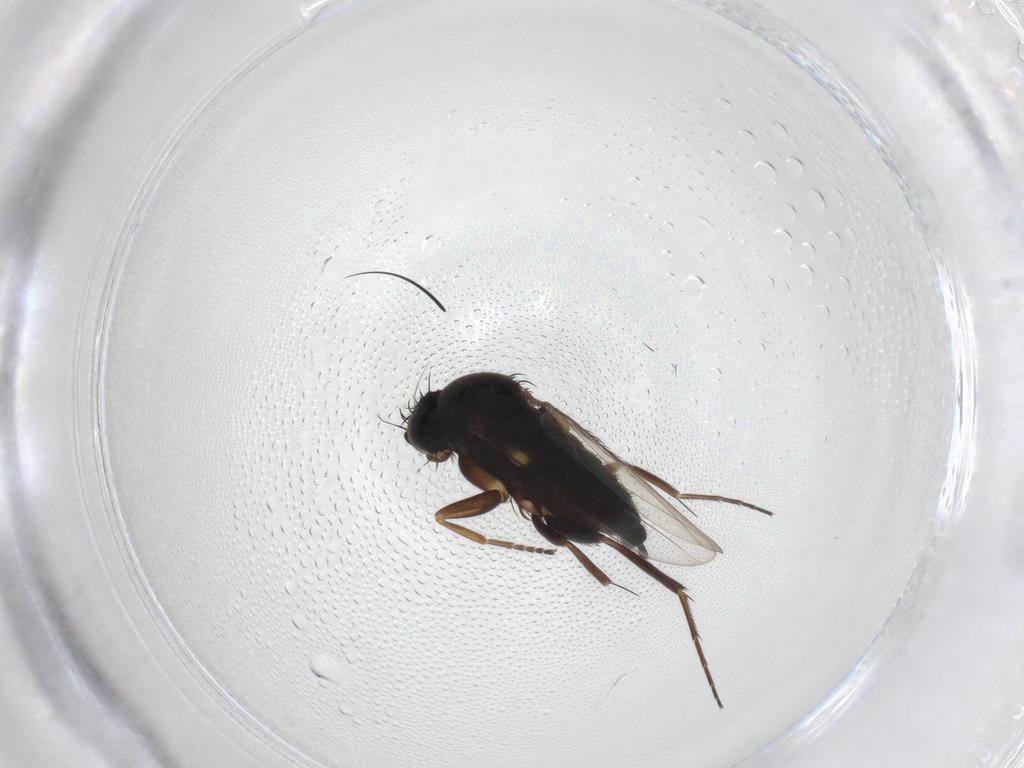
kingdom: Animalia
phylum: Arthropoda
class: Insecta
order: Diptera
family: Phoridae
